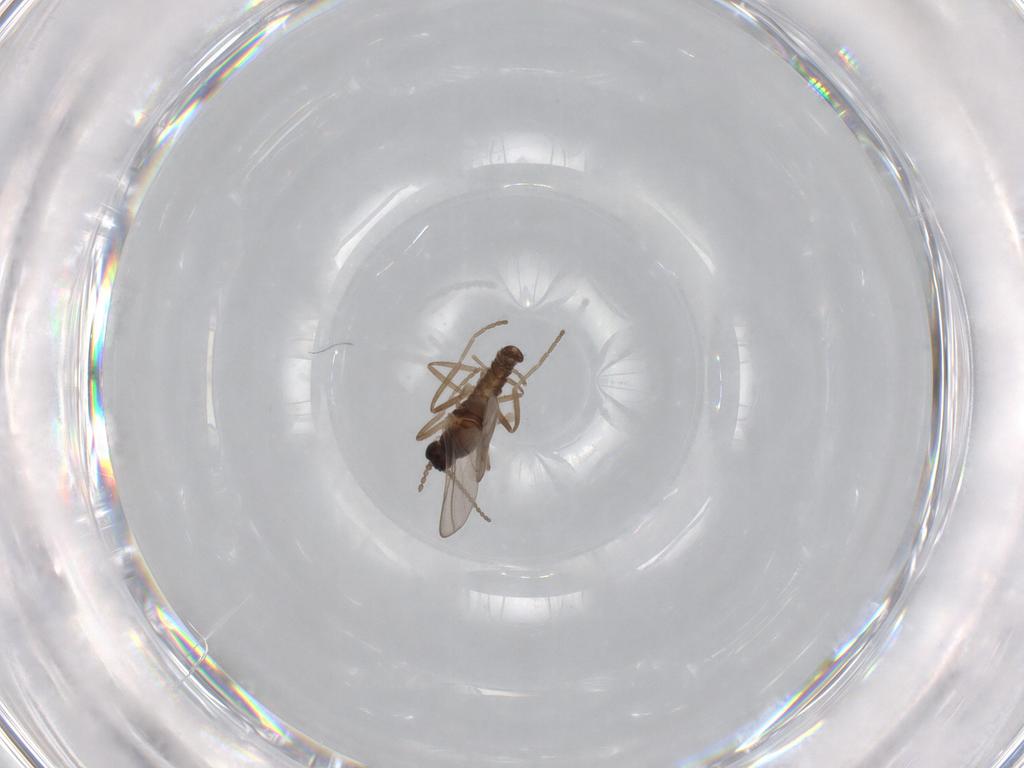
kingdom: Animalia
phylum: Arthropoda
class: Insecta
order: Diptera
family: Cecidomyiidae
